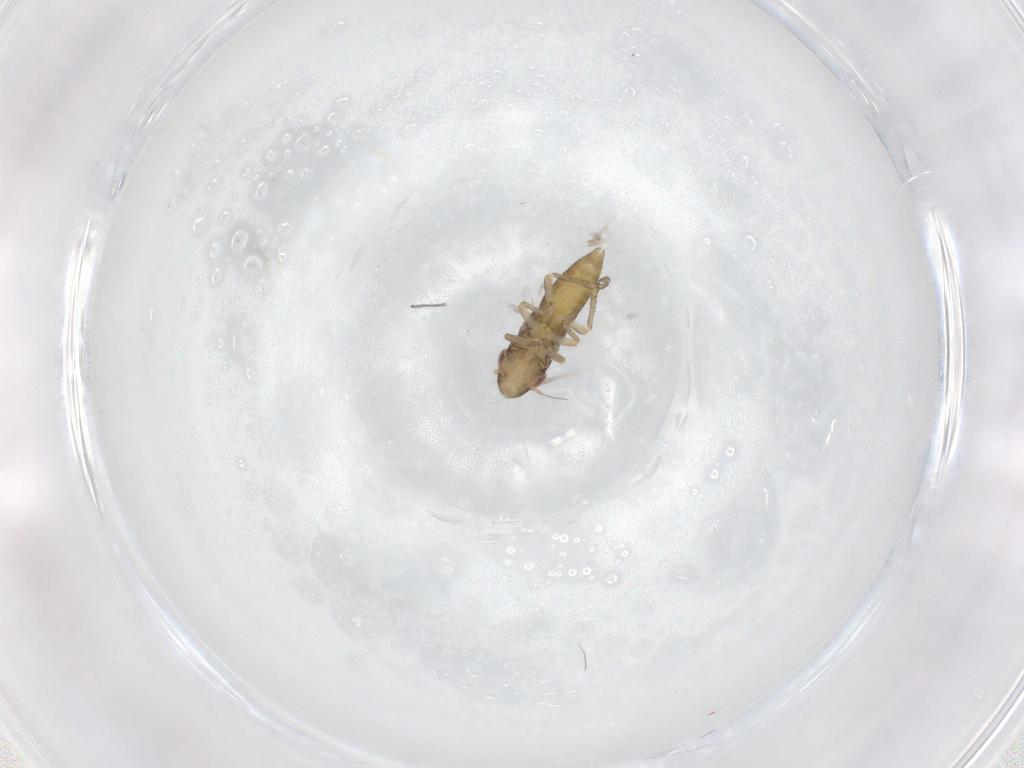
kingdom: Animalia
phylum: Arthropoda
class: Insecta
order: Hemiptera
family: Cicadellidae
